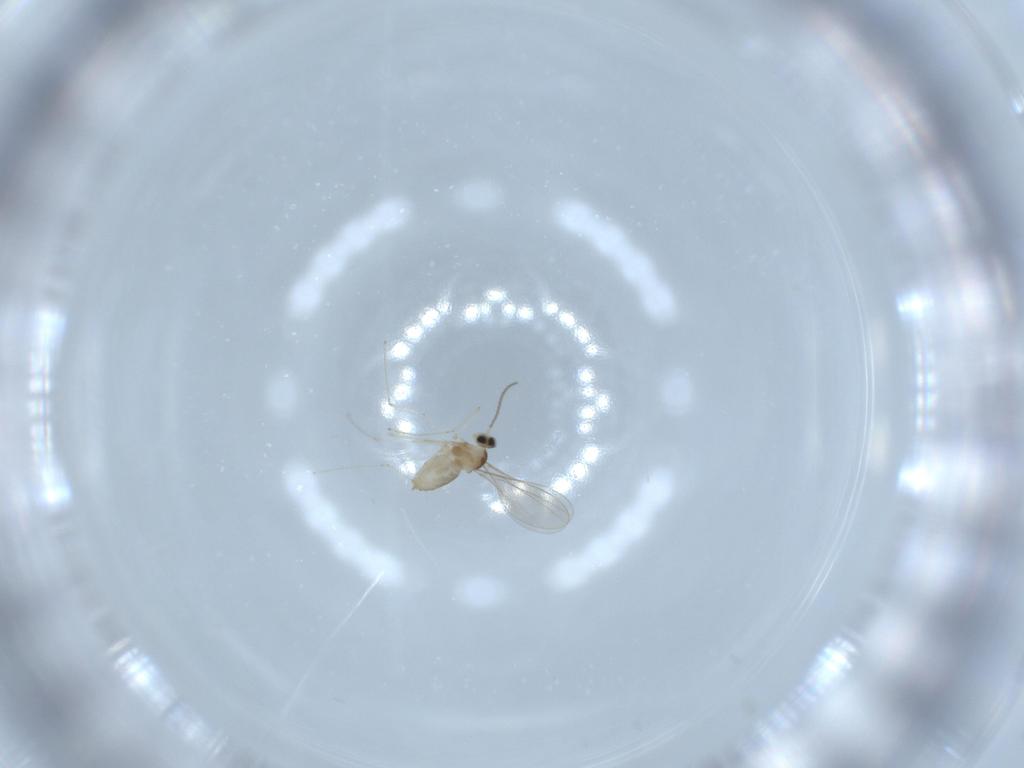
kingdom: Animalia
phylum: Arthropoda
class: Insecta
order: Diptera
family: Cecidomyiidae
